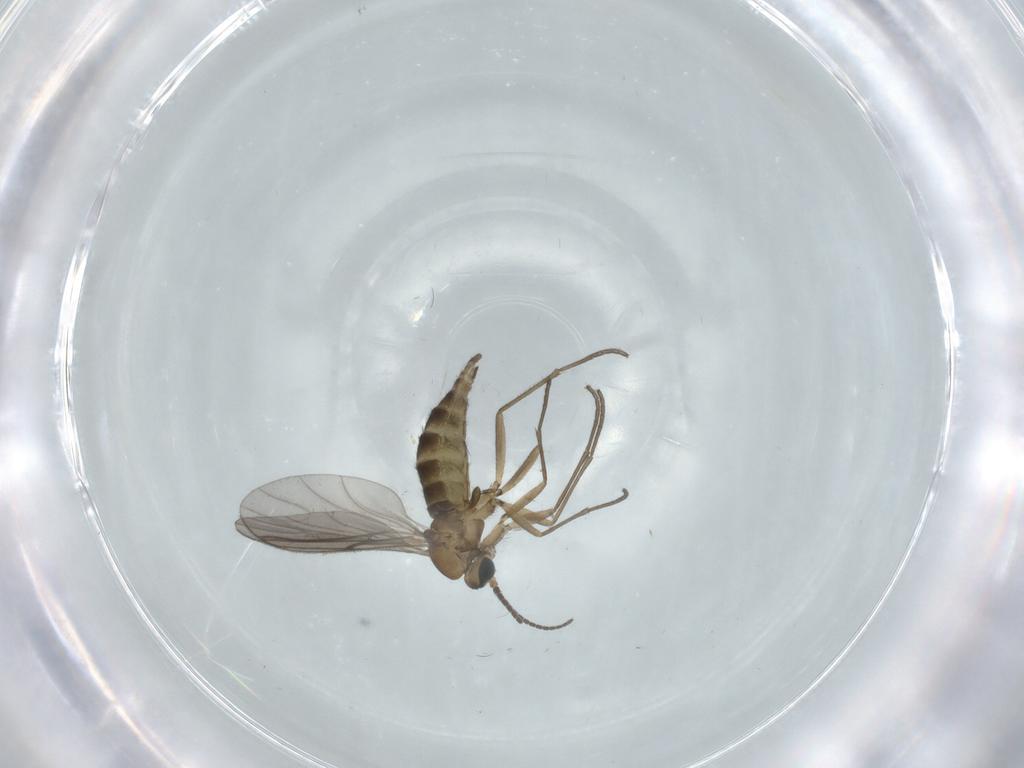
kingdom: Animalia
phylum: Arthropoda
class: Insecta
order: Diptera
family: Sciaridae
